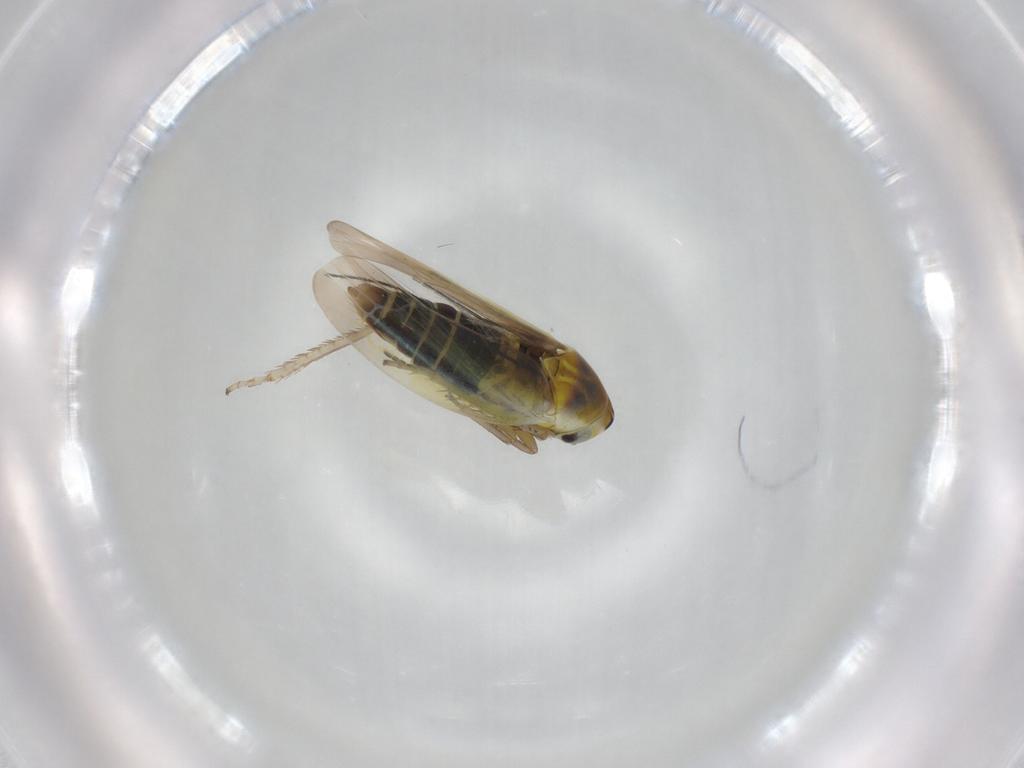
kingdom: Animalia
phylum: Arthropoda
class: Insecta
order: Hemiptera
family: Cicadellidae
